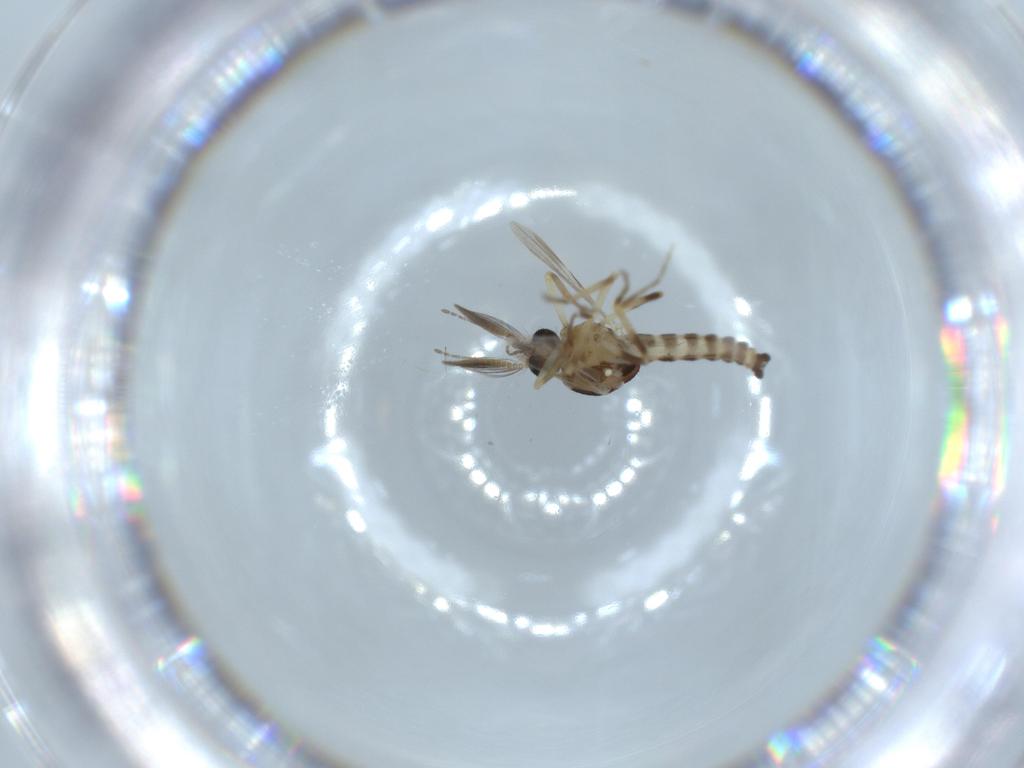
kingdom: Animalia
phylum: Arthropoda
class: Insecta
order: Diptera
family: Ceratopogonidae
